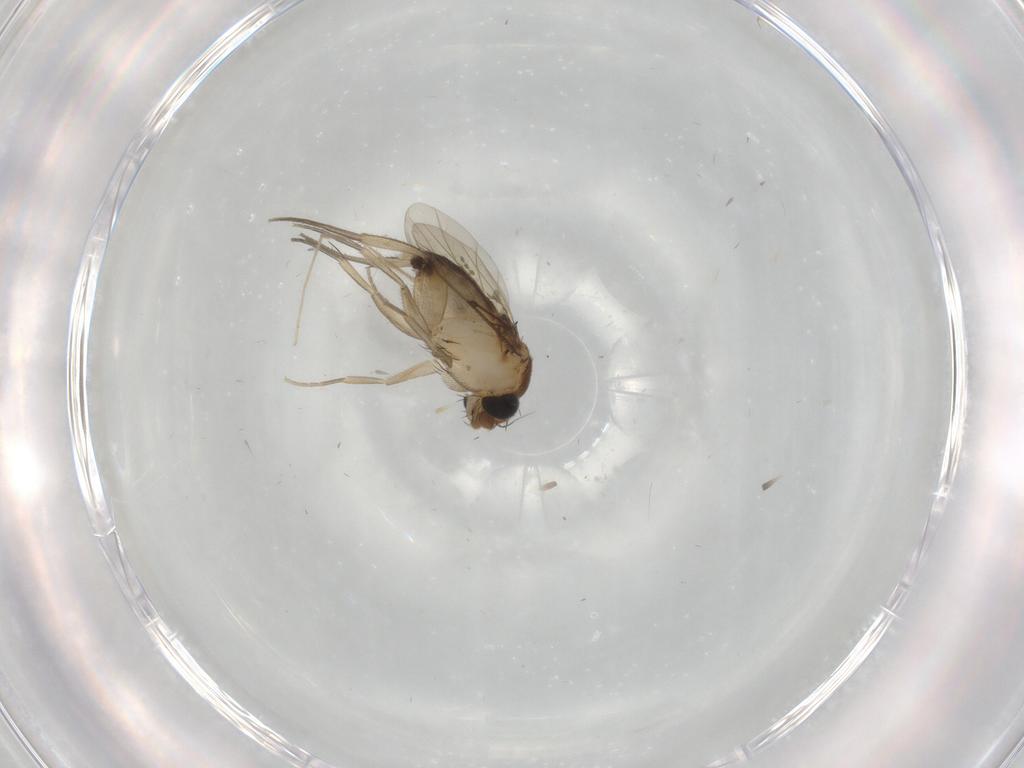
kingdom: Animalia
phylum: Arthropoda
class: Insecta
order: Diptera
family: Phoridae
